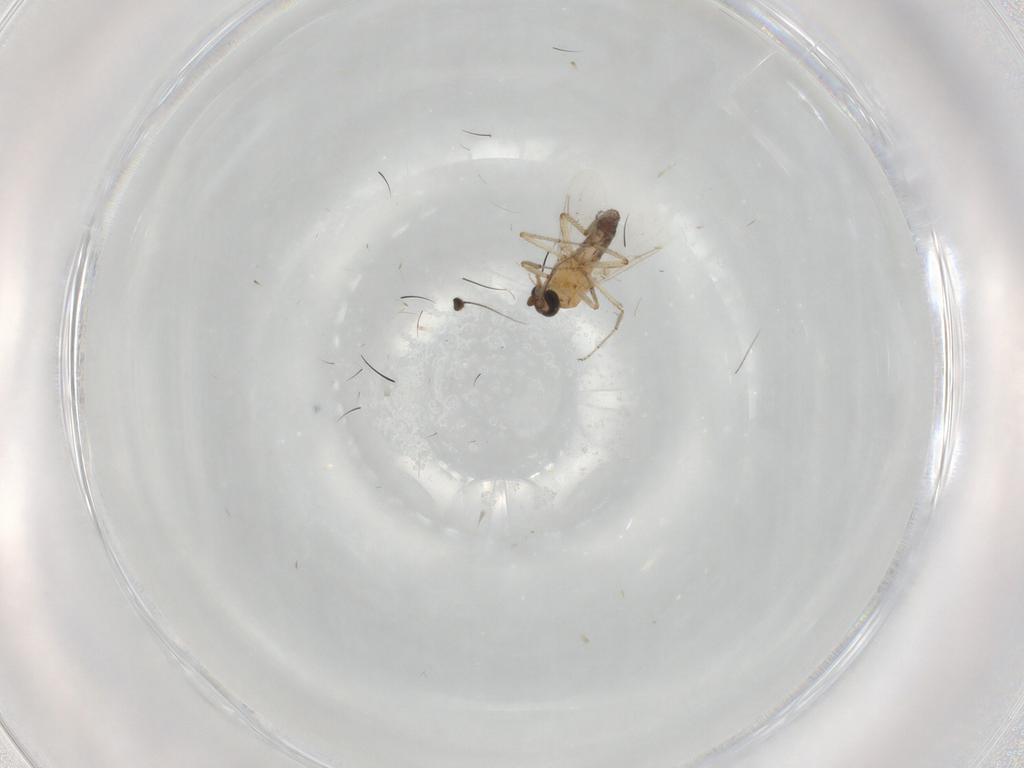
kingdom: Animalia
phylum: Arthropoda
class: Insecta
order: Diptera
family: Ceratopogonidae
